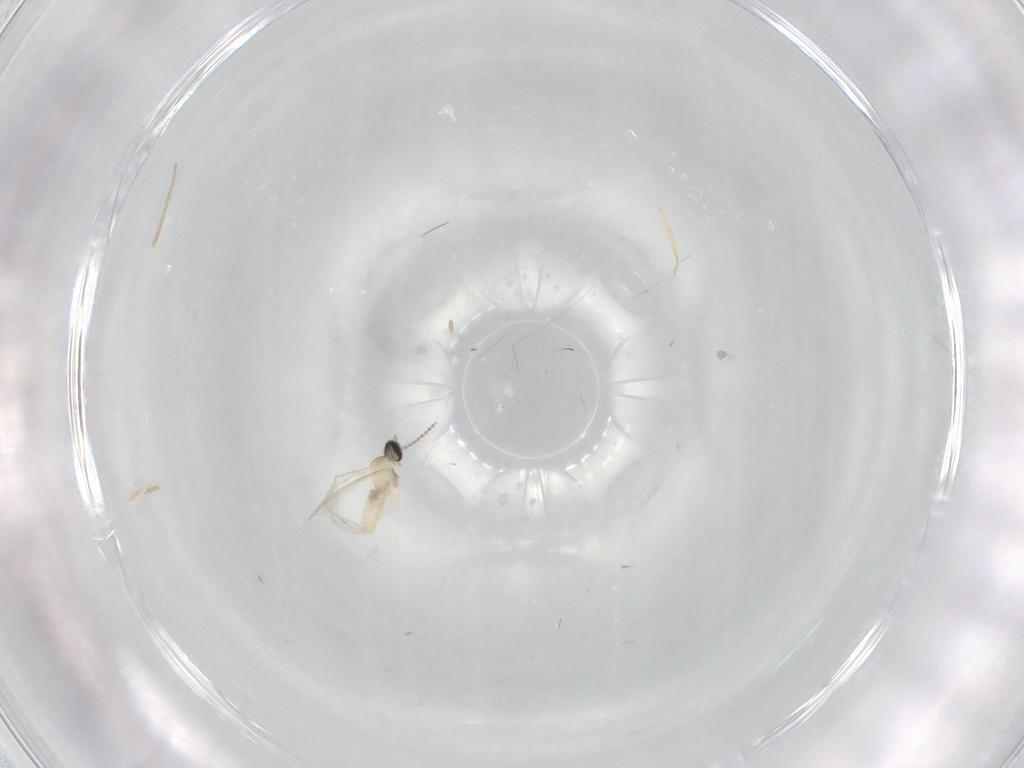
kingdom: Animalia
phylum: Arthropoda
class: Insecta
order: Diptera
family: Cecidomyiidae
